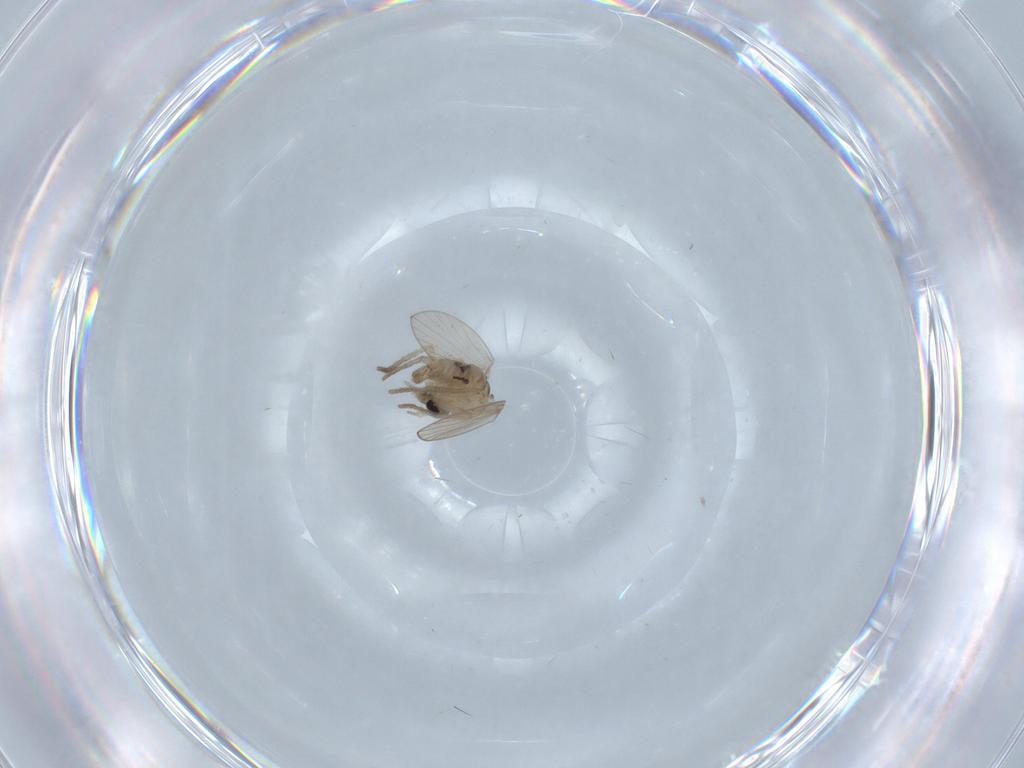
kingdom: Animalia
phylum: Arthropoda
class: Insecta
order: Diptera
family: Psychodidae
